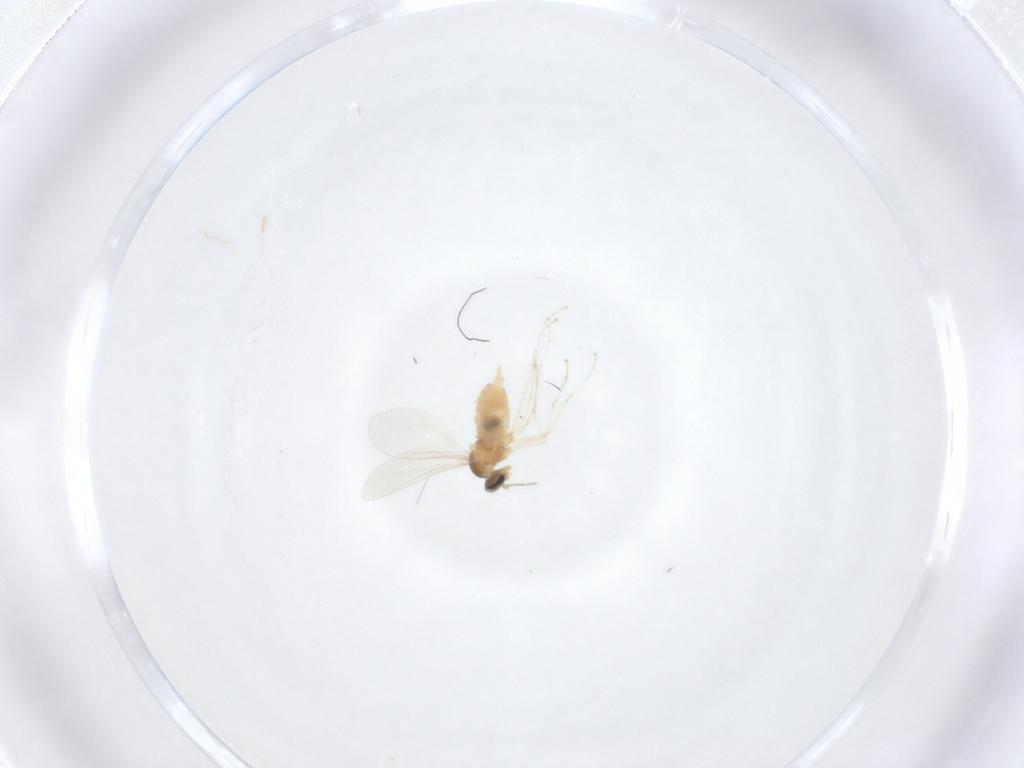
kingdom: Animalia
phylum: Arthropoda
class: Insecta
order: Diptera
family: Cecidomyiidae
